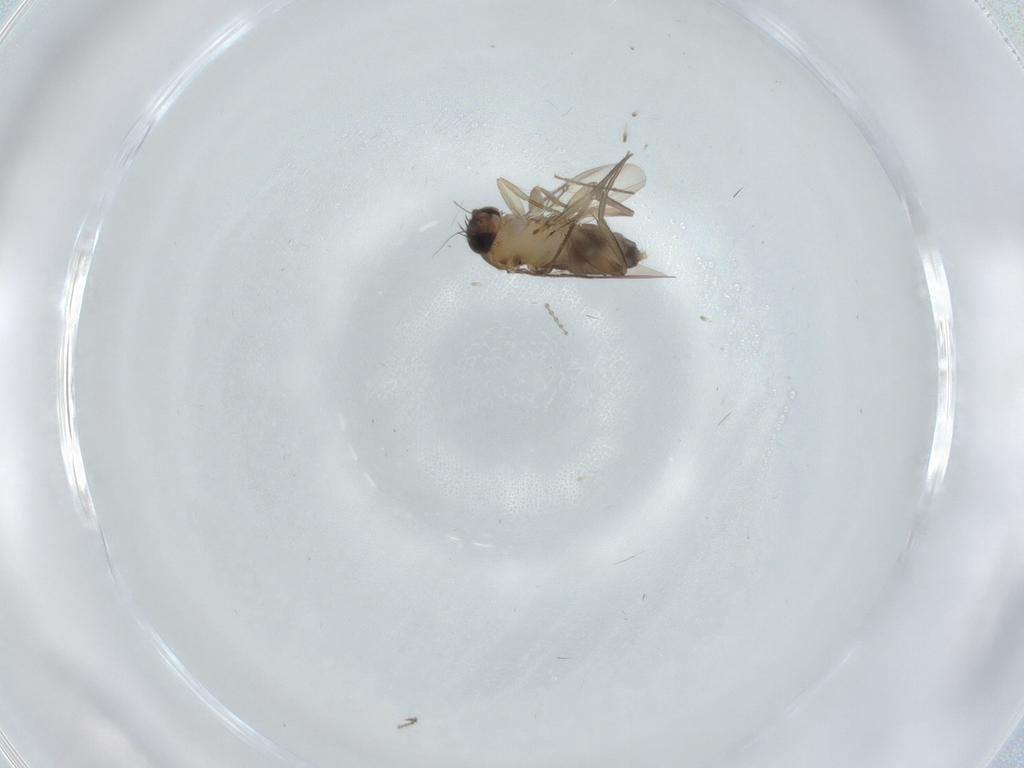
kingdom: Animalia
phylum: Arthropoda
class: Insecta
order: Diptera
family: Phoridae
